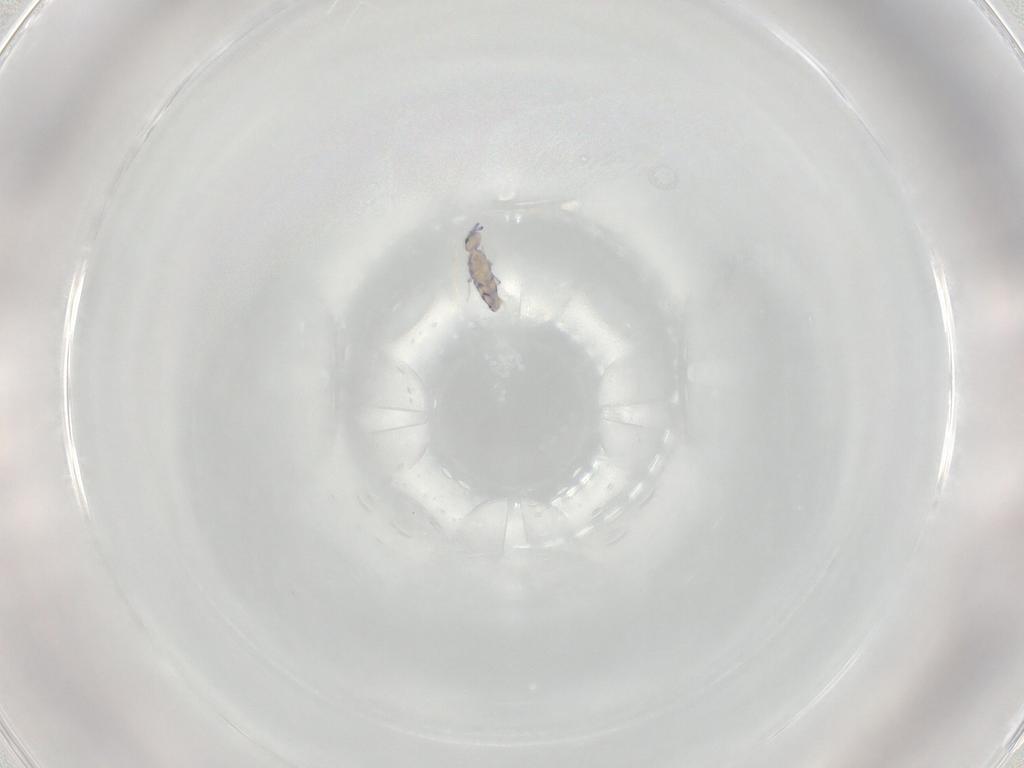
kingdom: Animalia
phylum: Arthropoda
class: Collembola
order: Entomobryomorpha
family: Entomobryidae
